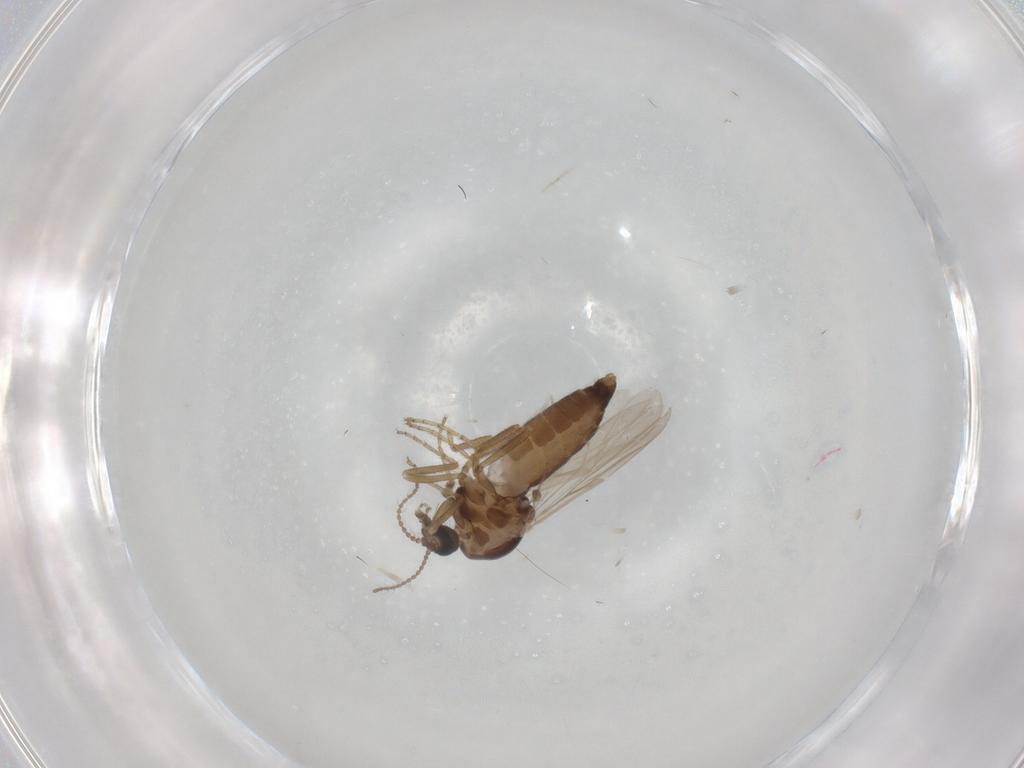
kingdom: Animalia
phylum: Arthropoda
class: Insecta
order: Diptera
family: Ceratopogonidae
